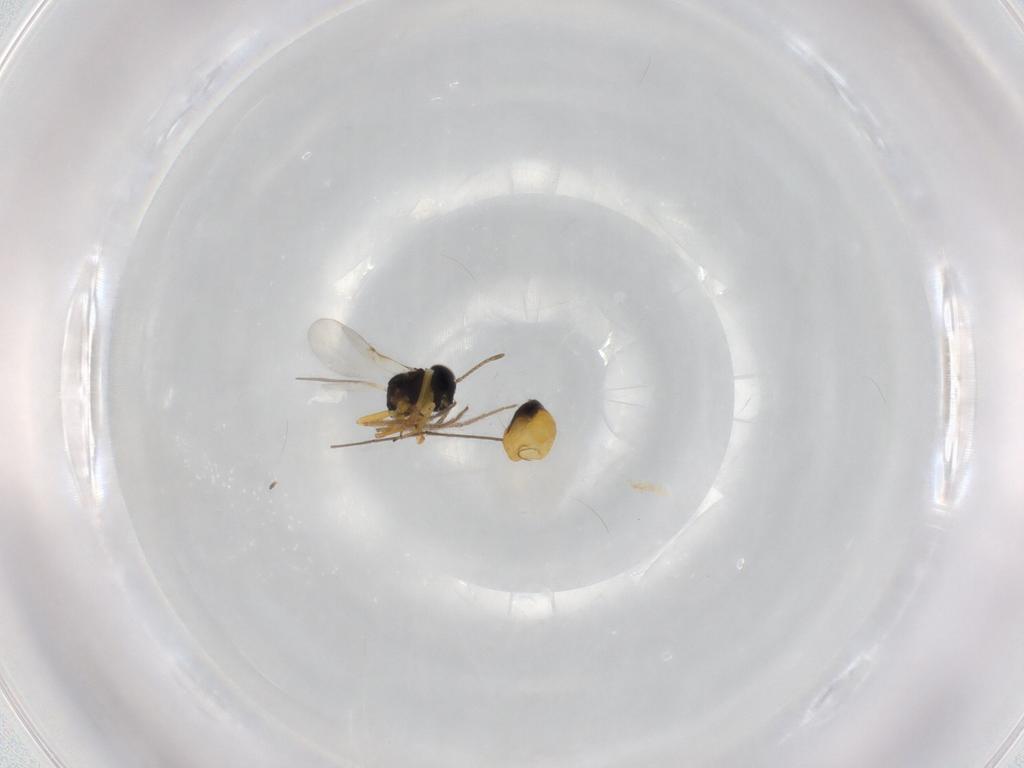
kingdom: Animalia
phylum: Arthropoda
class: Insecta
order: Hymenoptera
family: Encyrtidae
